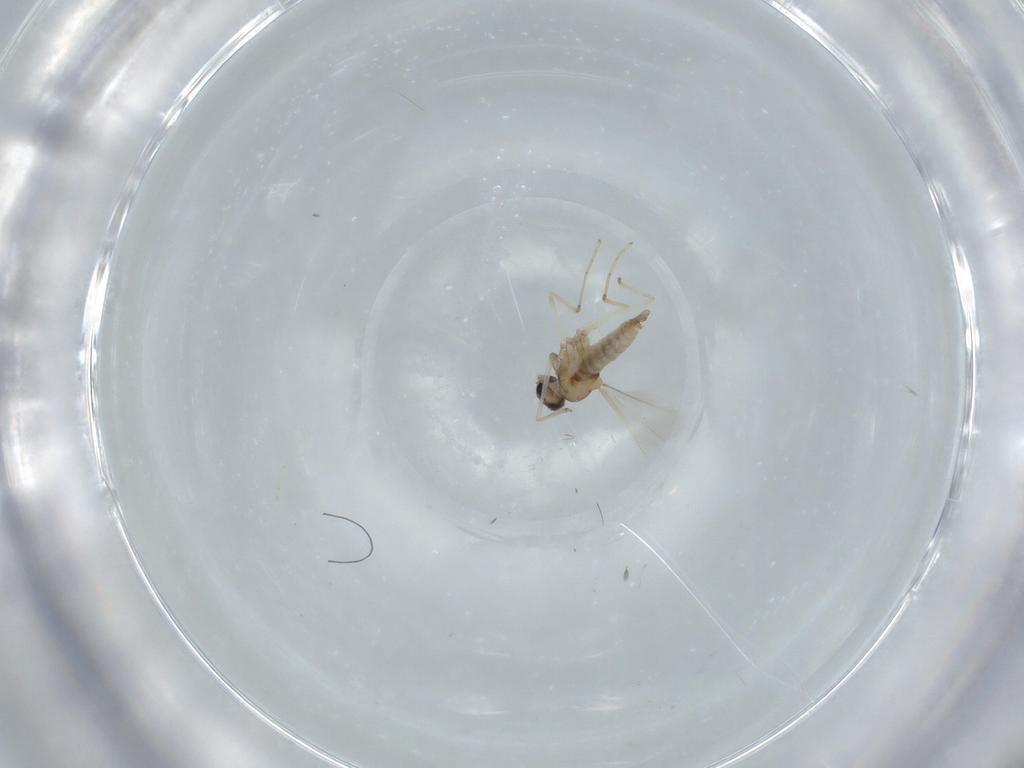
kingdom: Animalia
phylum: Arthropoda
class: Insecta
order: Diptera
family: Cecidomyiidae
